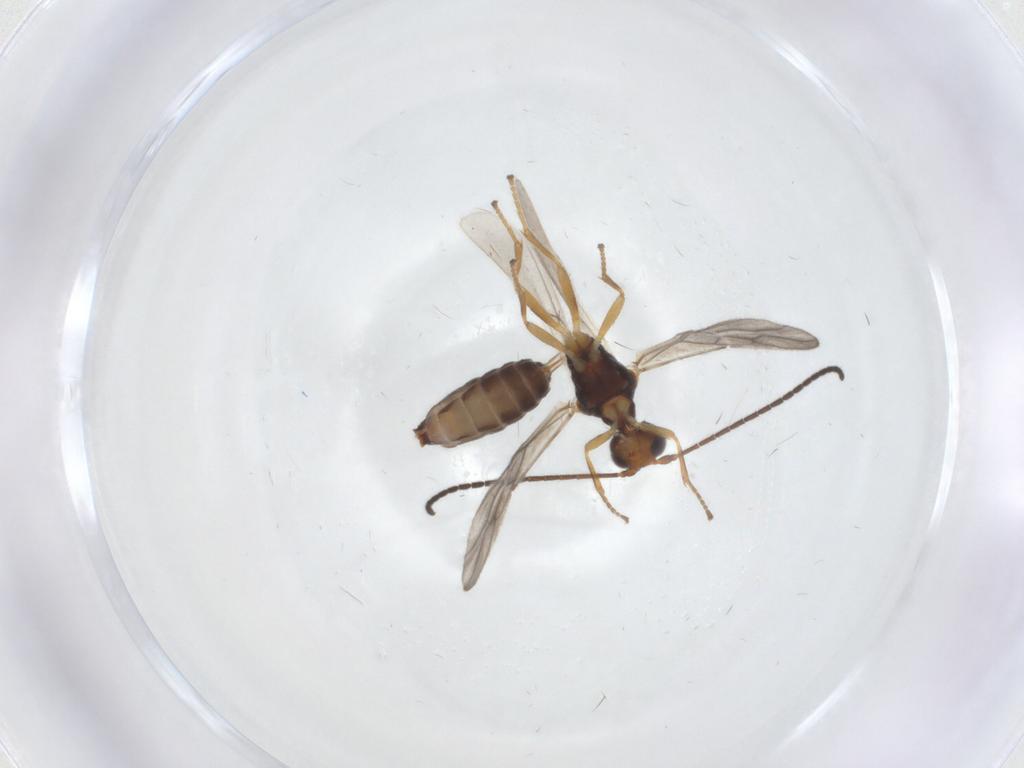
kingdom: Animalia
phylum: Arthropoda
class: Insecta
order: Hymenoptera
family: Braconidae
